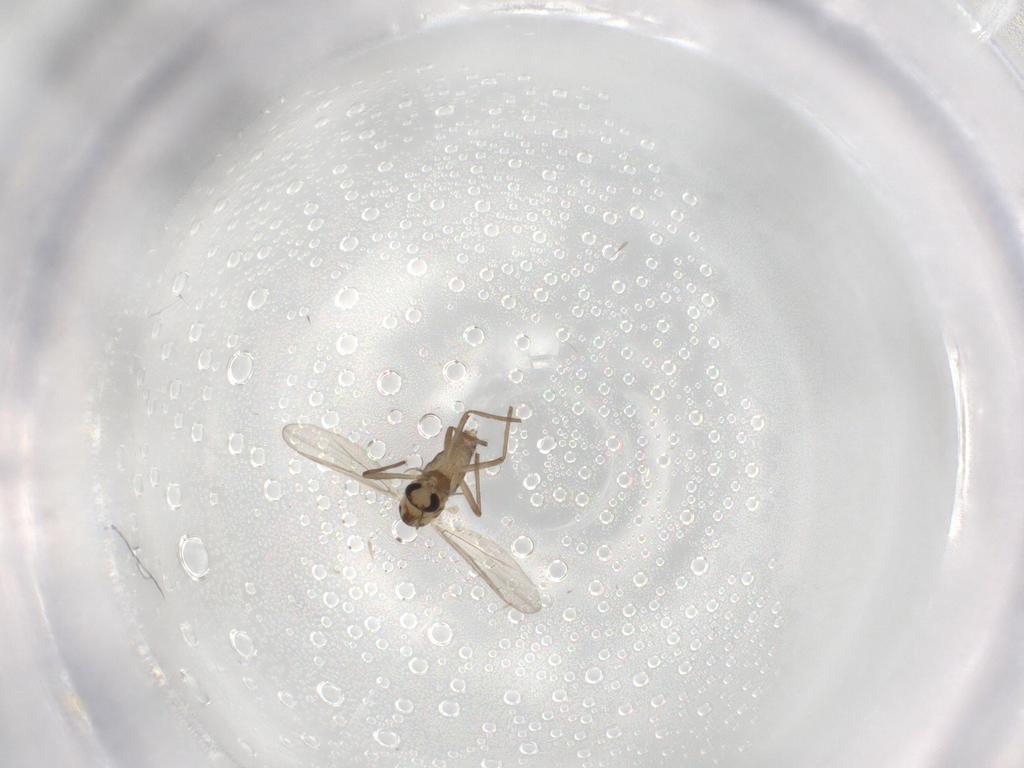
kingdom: Animalia
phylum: Arthropoda
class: Insecta
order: Diptera
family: Chironomidae
